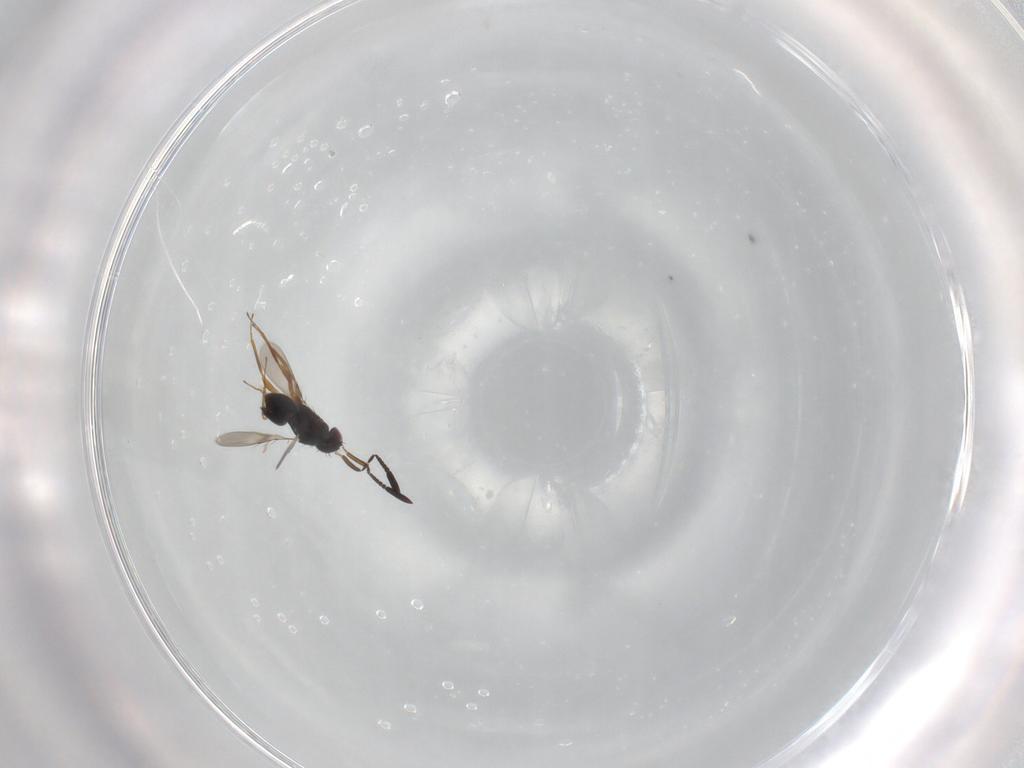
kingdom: Animalia
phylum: Arthropoda
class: Insecta
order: Hymenoptera
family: Mymaridae
